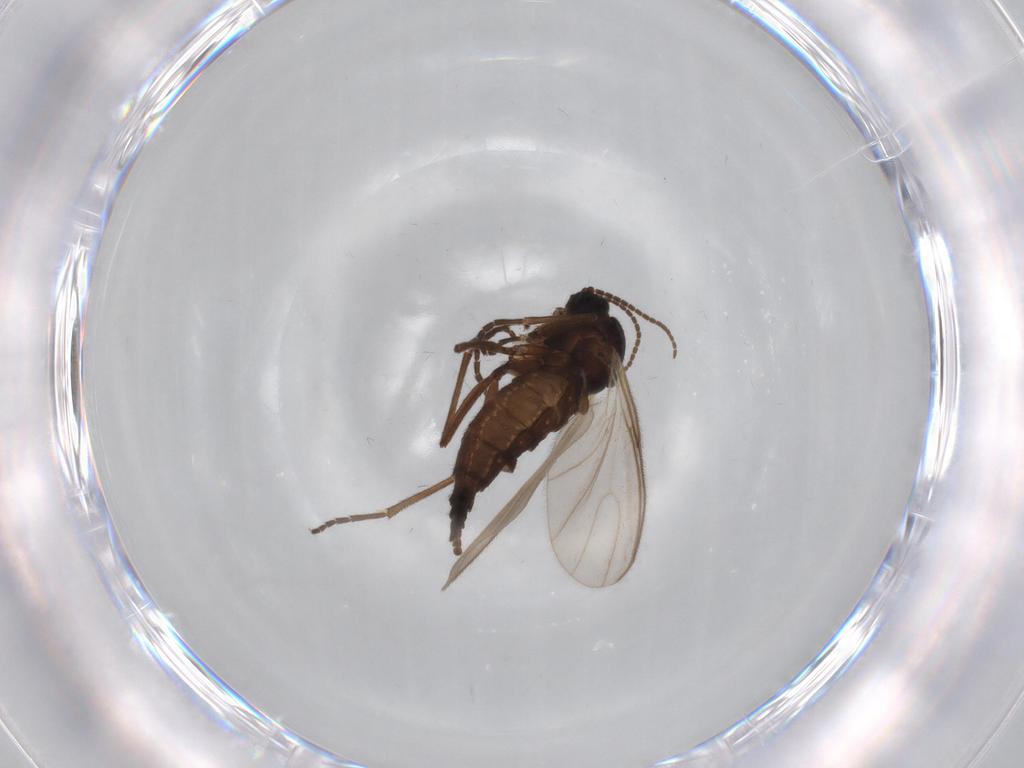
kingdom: Animalia
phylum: Arthropoda
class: Insecta
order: Diptera
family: Sciaridae
